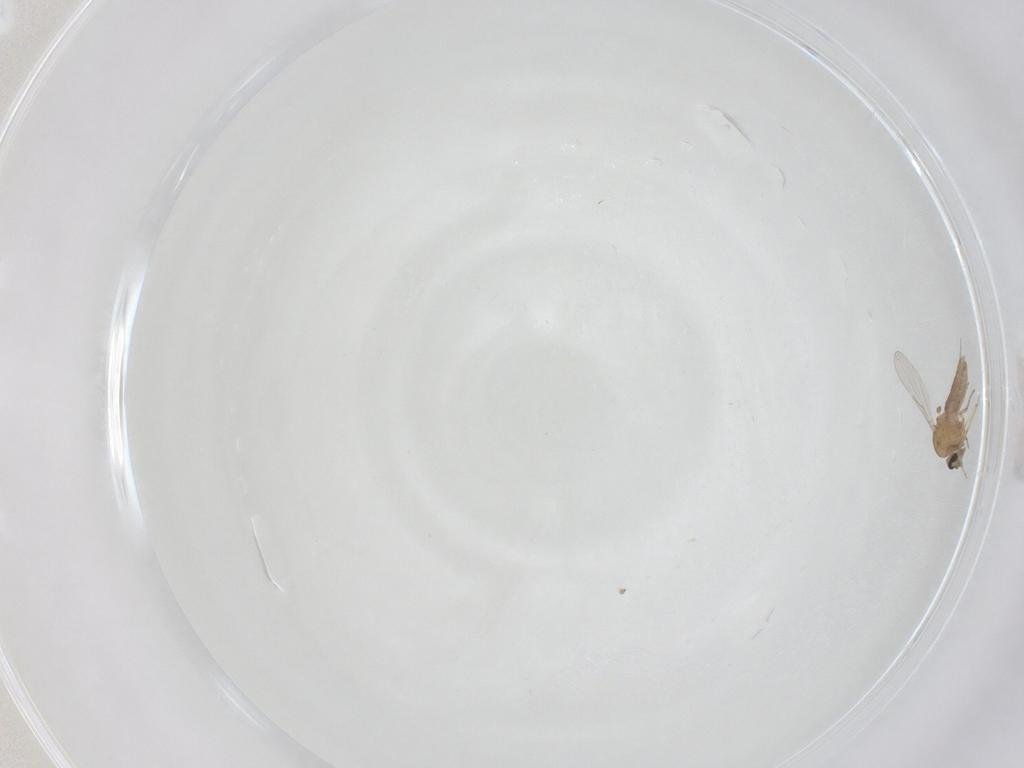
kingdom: Animalia
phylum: Arthropoda
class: Insecta
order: Diptera
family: Ceratopogonidae
